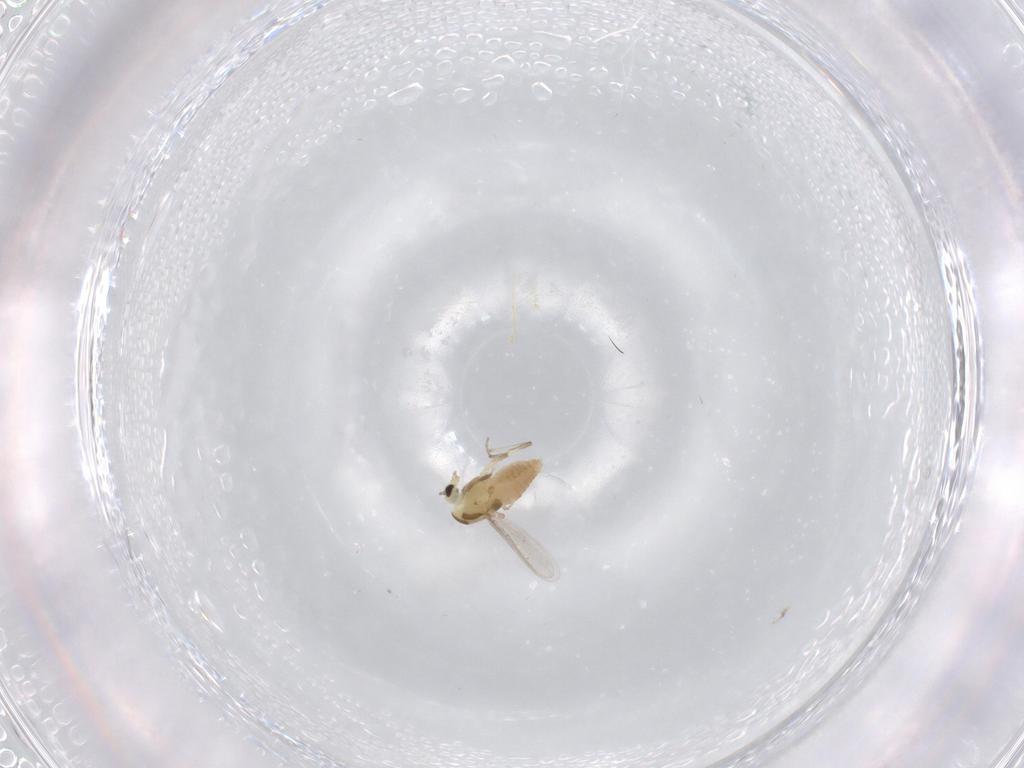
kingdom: Animalia
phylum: Arthropoda
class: Insecta
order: Diptera
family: Chironomidae
